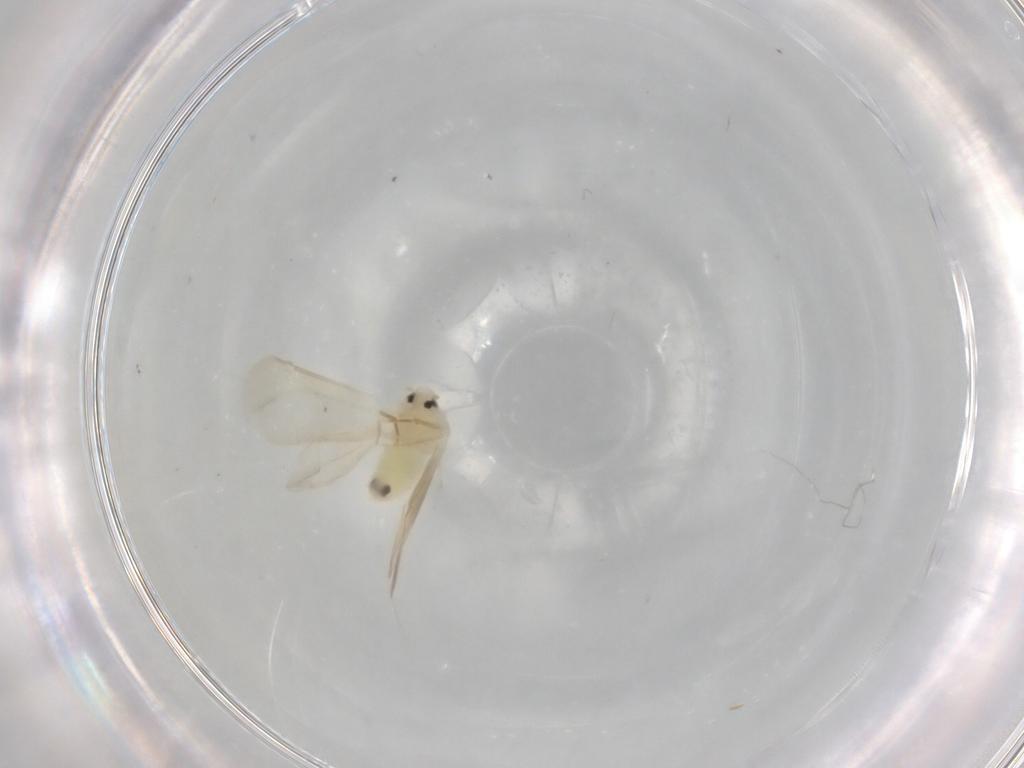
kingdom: Animalia
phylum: Arthropoda
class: Insecta
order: Hemiptera
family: Aleyrodidae
